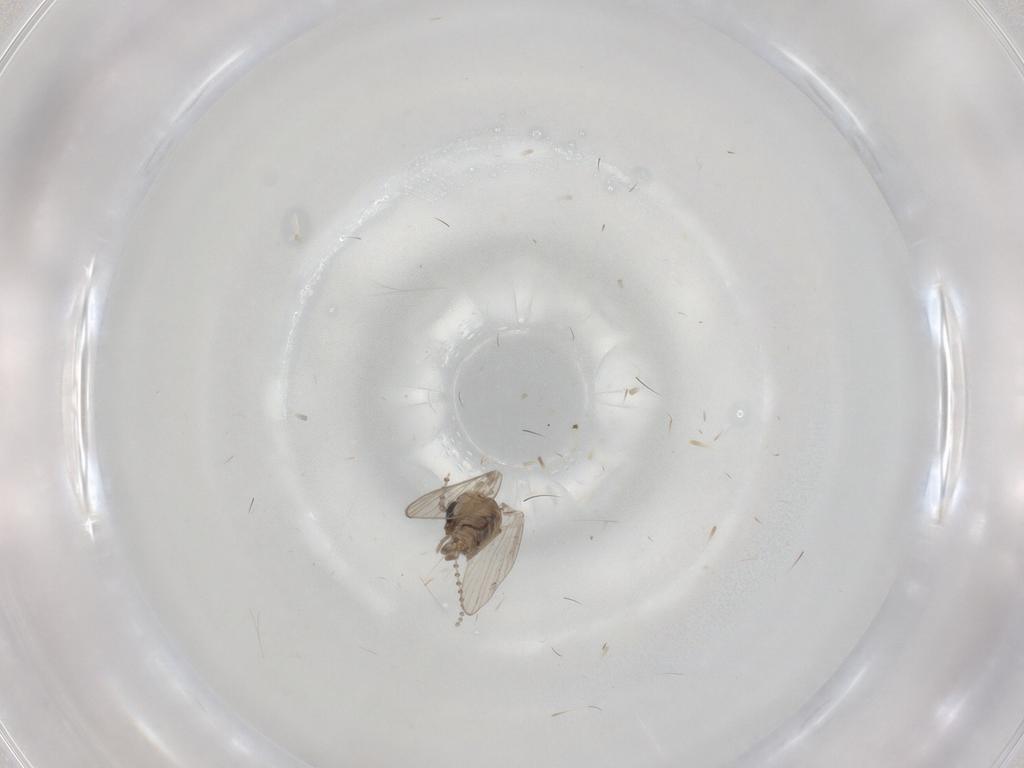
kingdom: Animalia
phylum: Arthropoda
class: Insecta
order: Diptera
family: Psychodidae
